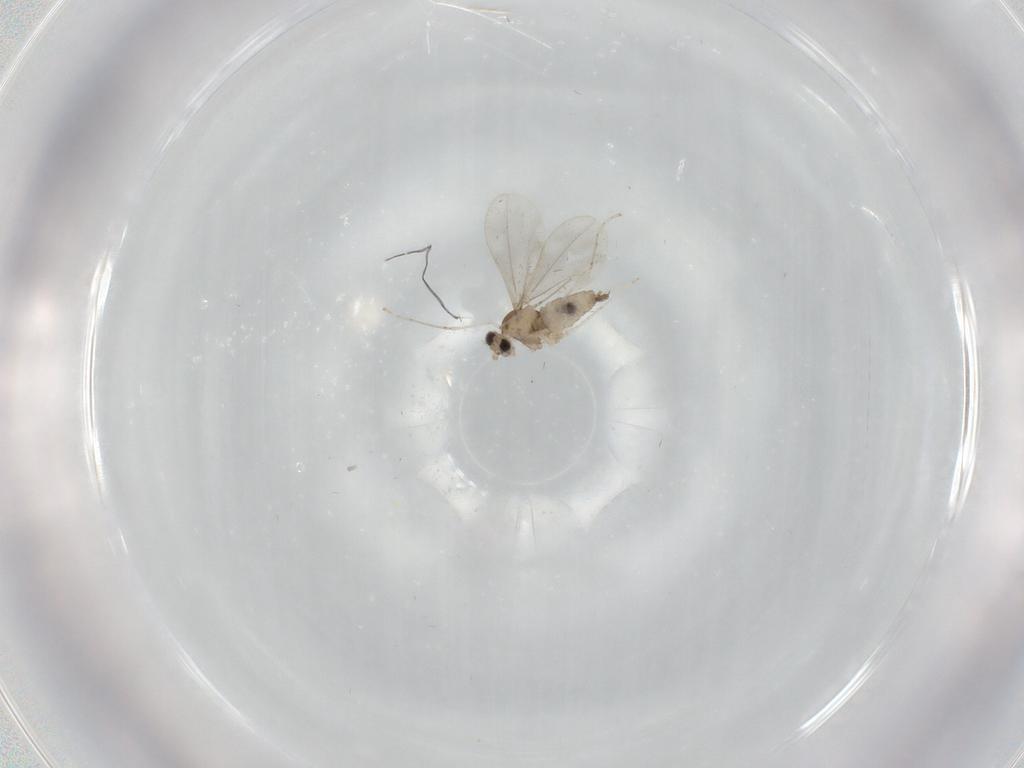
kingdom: Animalia
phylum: Arthropoda
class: Insecta
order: Diptera
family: Cecidomyiidae
